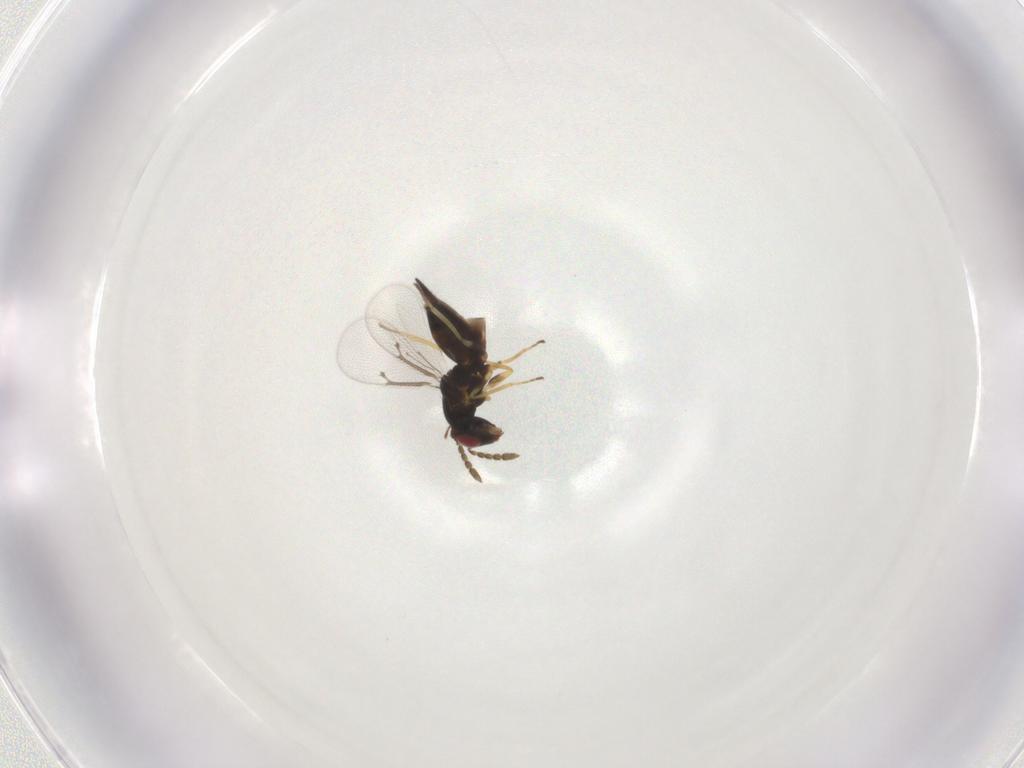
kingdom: Animalia
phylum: Arthropoda
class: Insecta
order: Hymenoptera
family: Eulophidae
